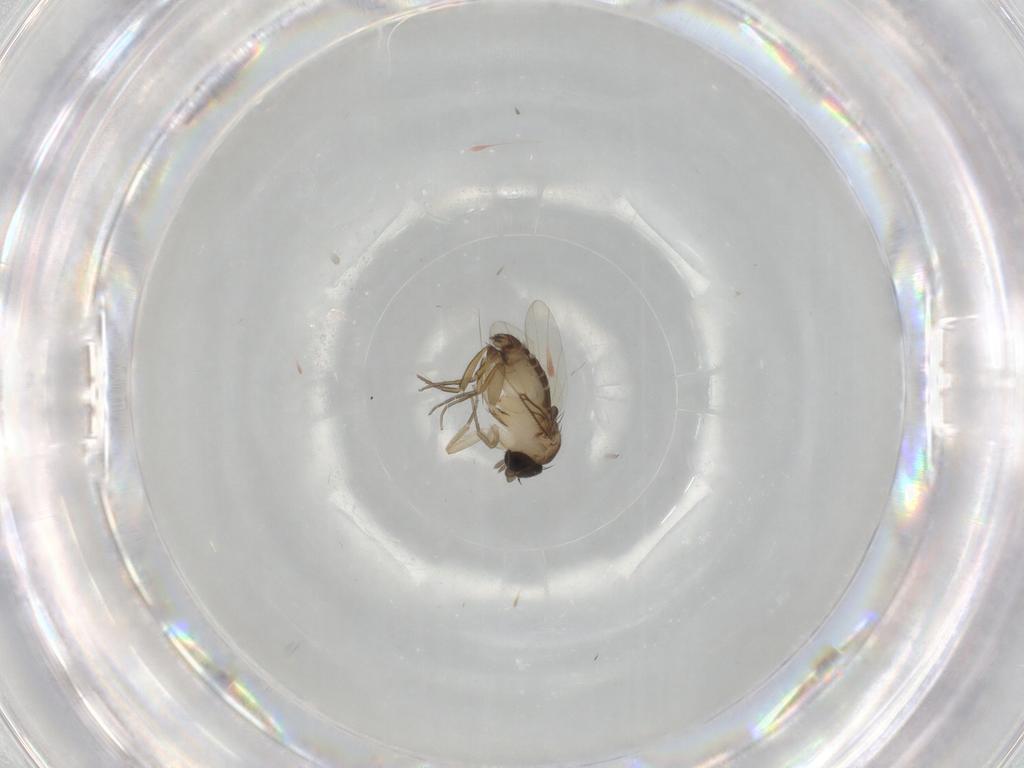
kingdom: Animalia
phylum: Arthropoda
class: Insecta
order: Diptera
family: Phoridae
